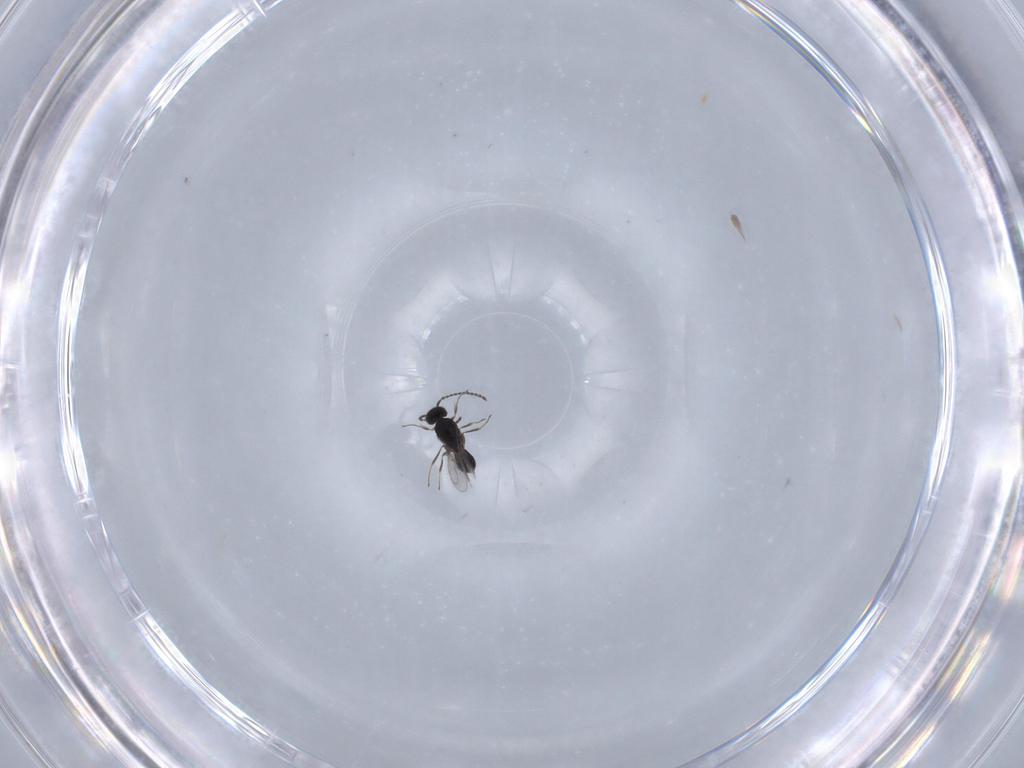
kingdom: Animalia
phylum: Arthropoda
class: Insecta
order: Hymenoptera
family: Scelionidae
